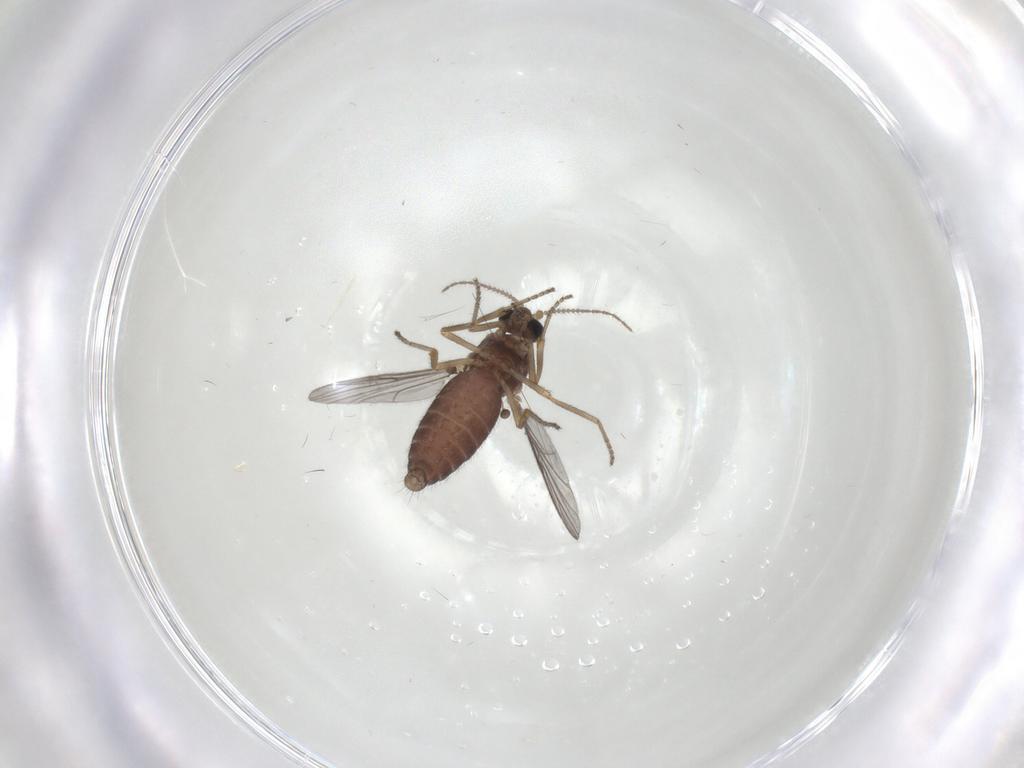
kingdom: Animalia
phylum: Arthropoda
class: Insecta
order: Diptera
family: Ceratopogonidae
